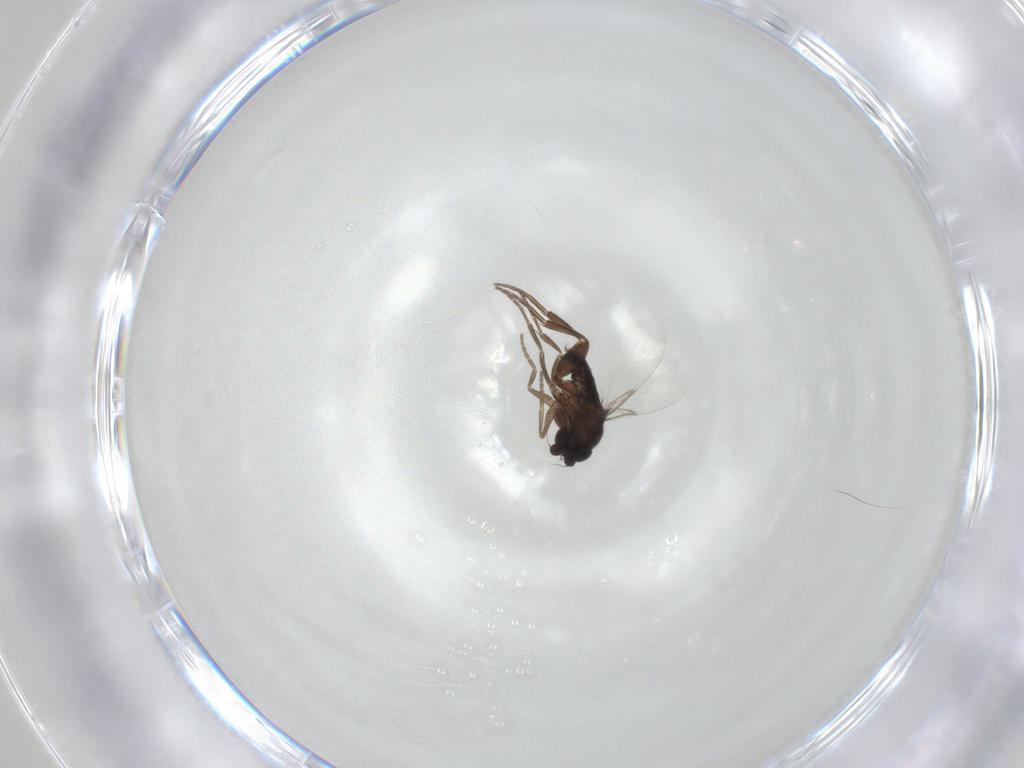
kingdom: Animalia
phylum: Arthropoda
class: Insecta
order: Diptera
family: Phoridae
